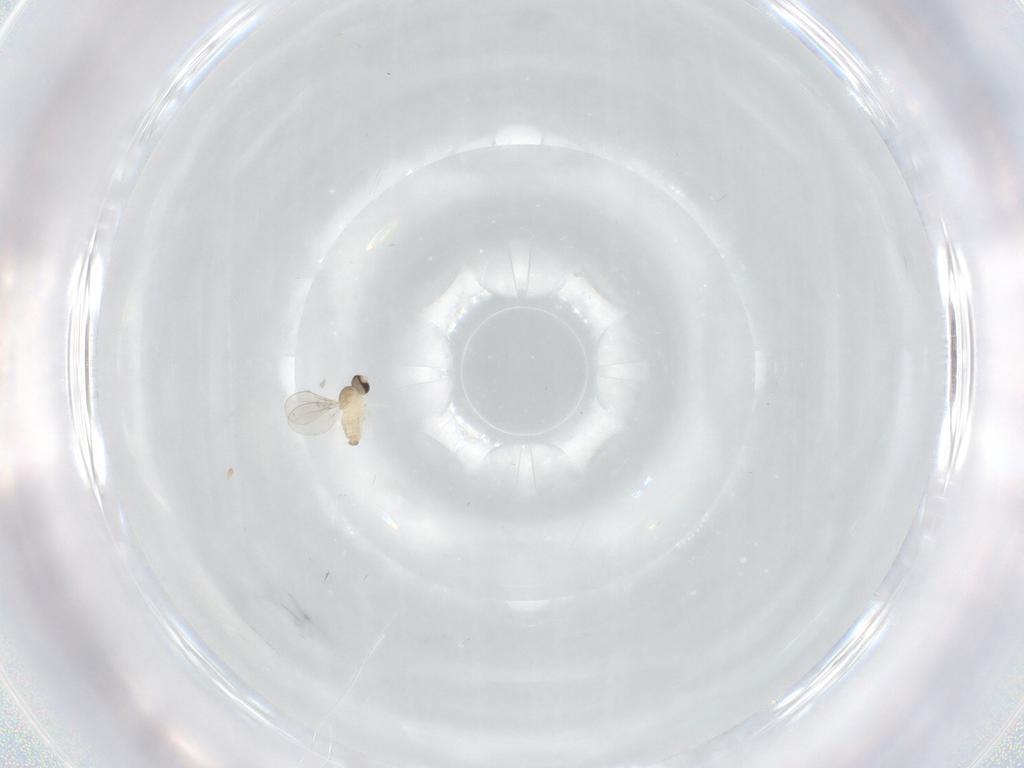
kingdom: Animalia
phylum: Arthropoda
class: Insecta
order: Diptera
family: Cecidomyiidae
